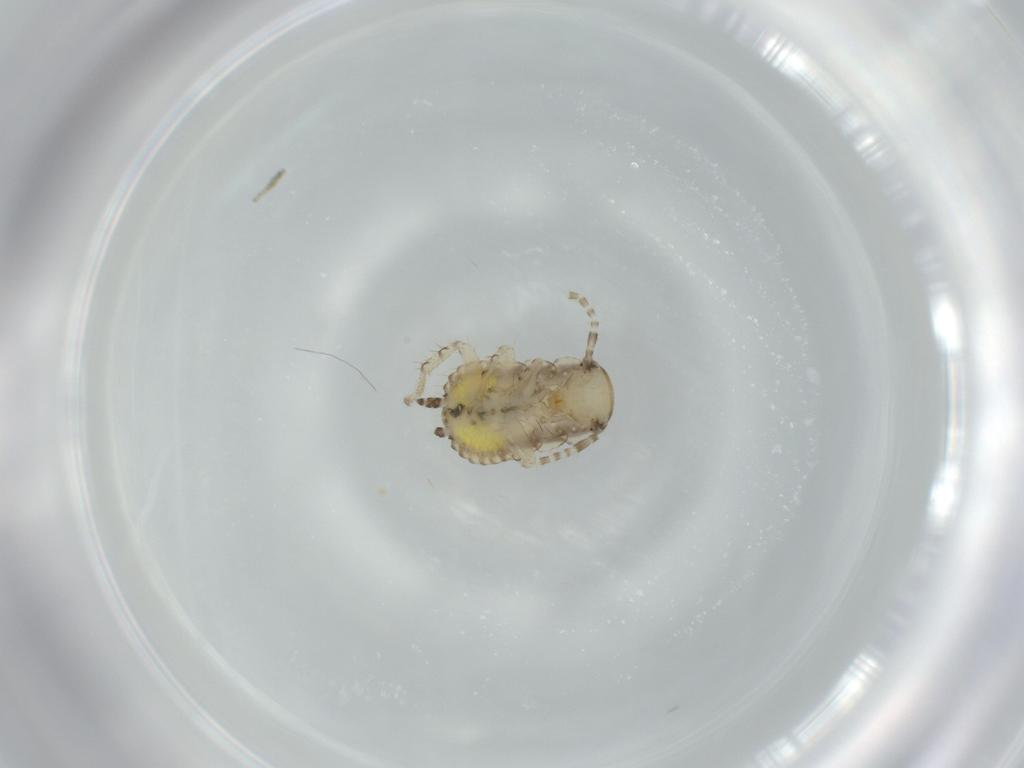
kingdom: Animalia
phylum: Arthropoda
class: Insecta
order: Blattodea
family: Ectobiidae
